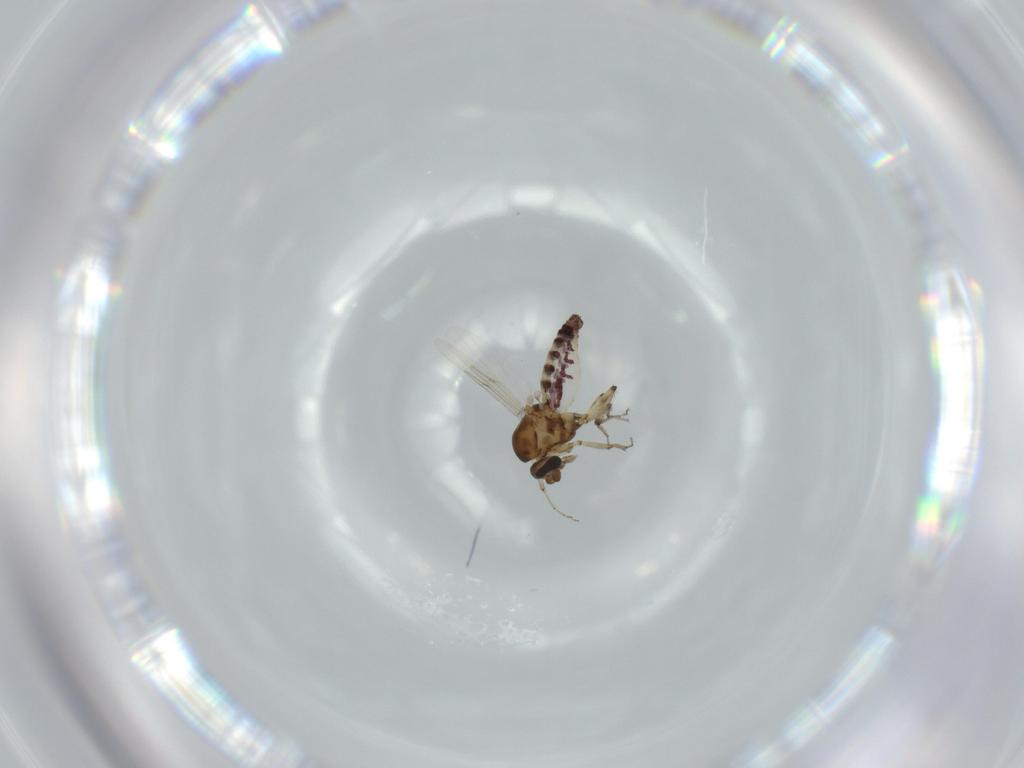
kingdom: Animalia
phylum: Arthropoda
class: Insecta
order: Diptera
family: Ceratopogonidae
